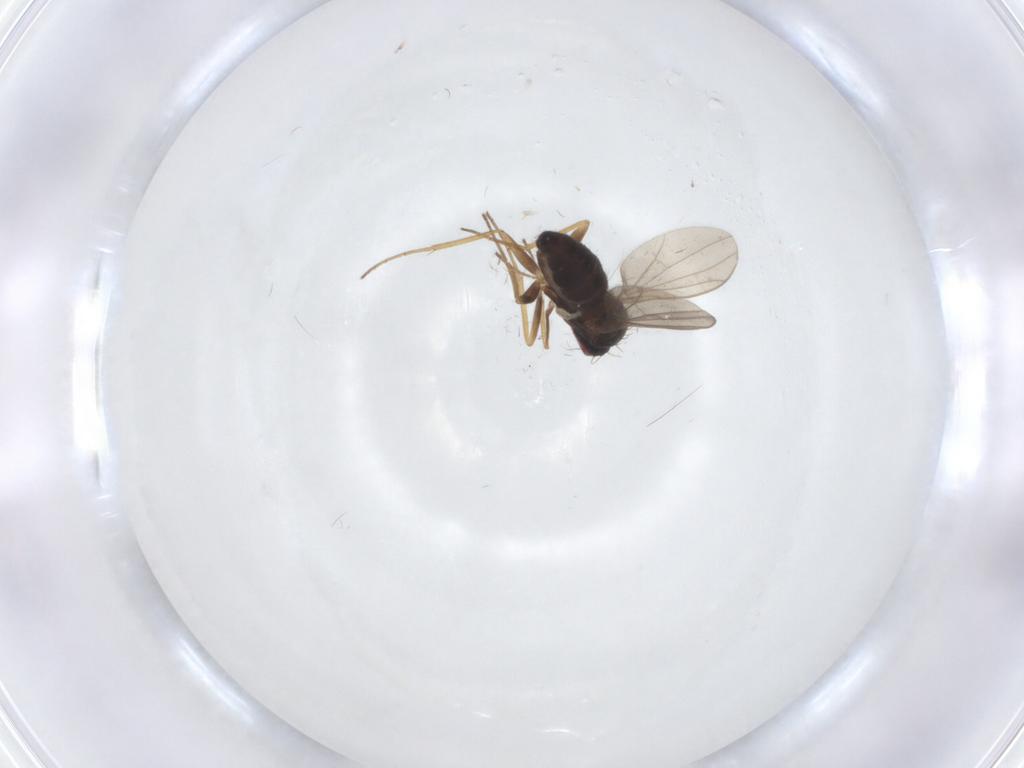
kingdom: Animalia
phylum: Arthropoda
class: Insecta
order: Diptera
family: Dolichopodidae
